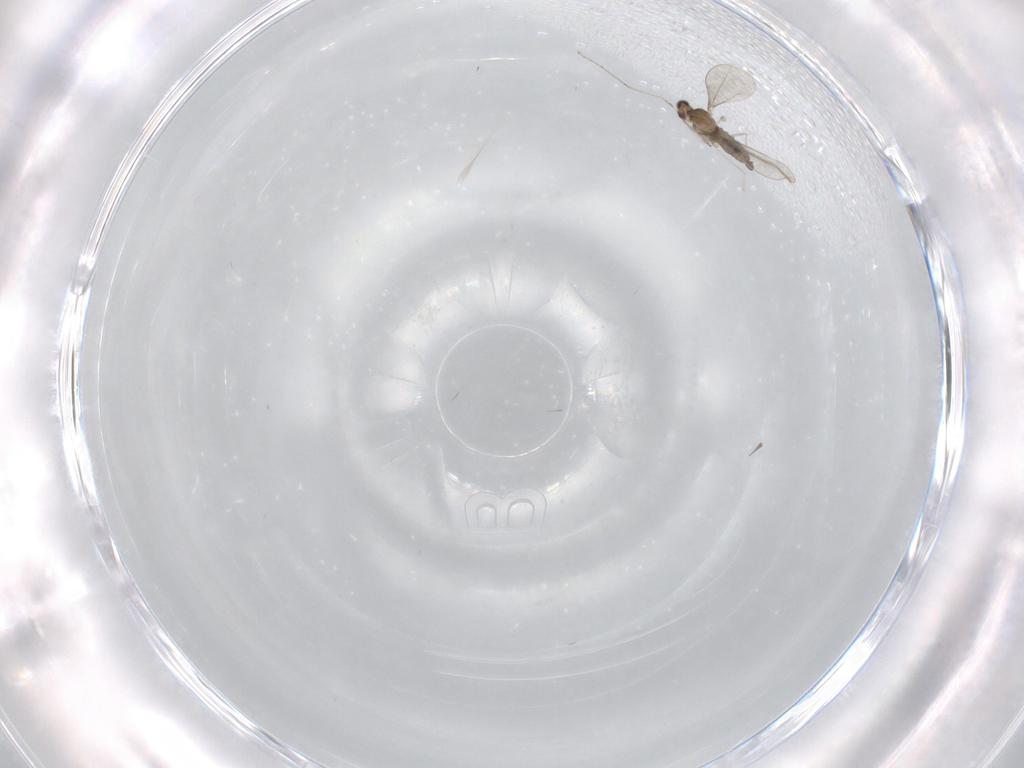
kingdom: Animalia
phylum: Arthropoda
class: Insecta
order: Diptera
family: Cecidomyiidae
